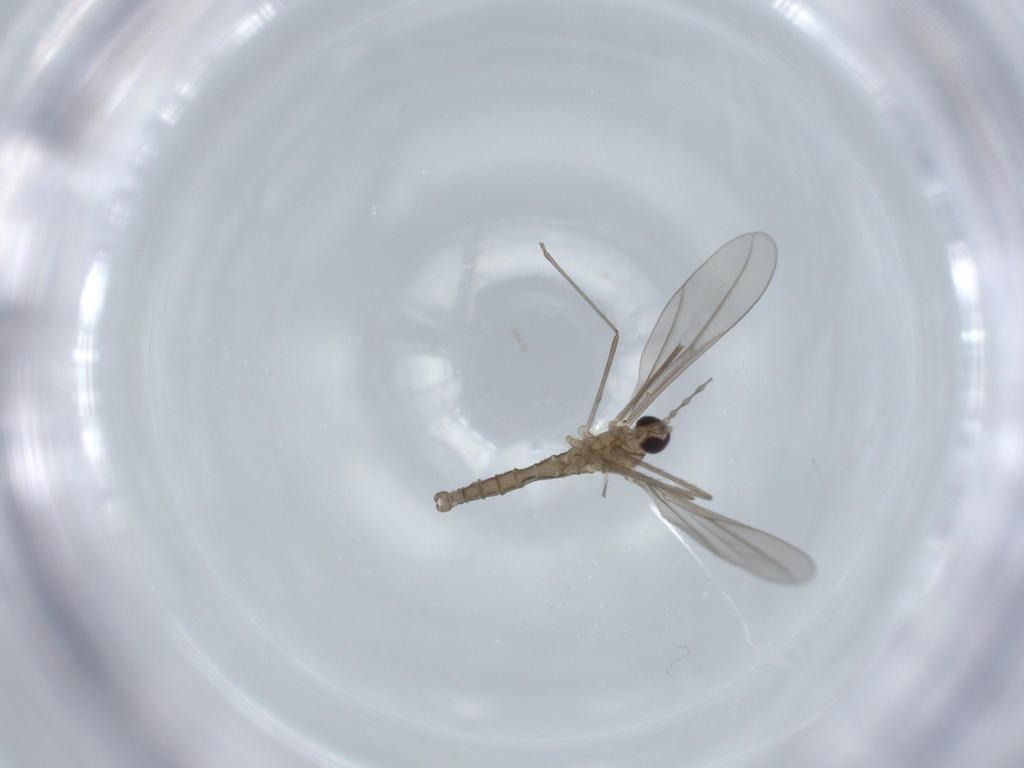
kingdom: Animalia
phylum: Arthropoda
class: Insecta
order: Diptera
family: Cecidomyiidae
